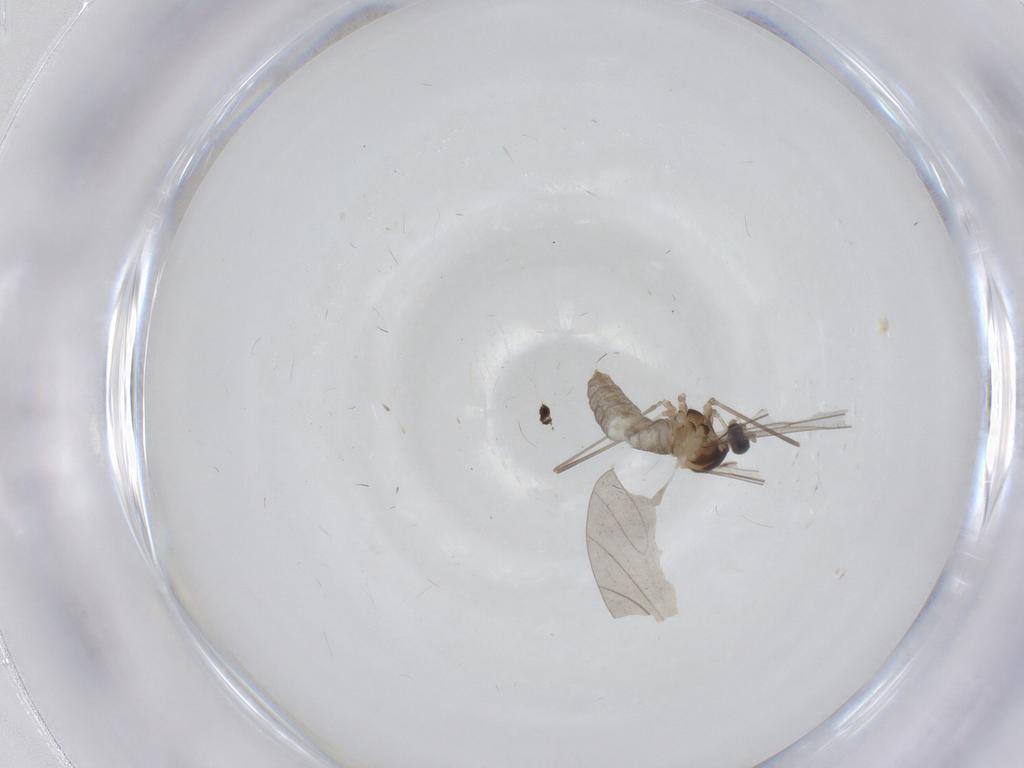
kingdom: Animalia
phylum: Arthropoda
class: Insecta
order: Diptera
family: Cecidomyiidae
